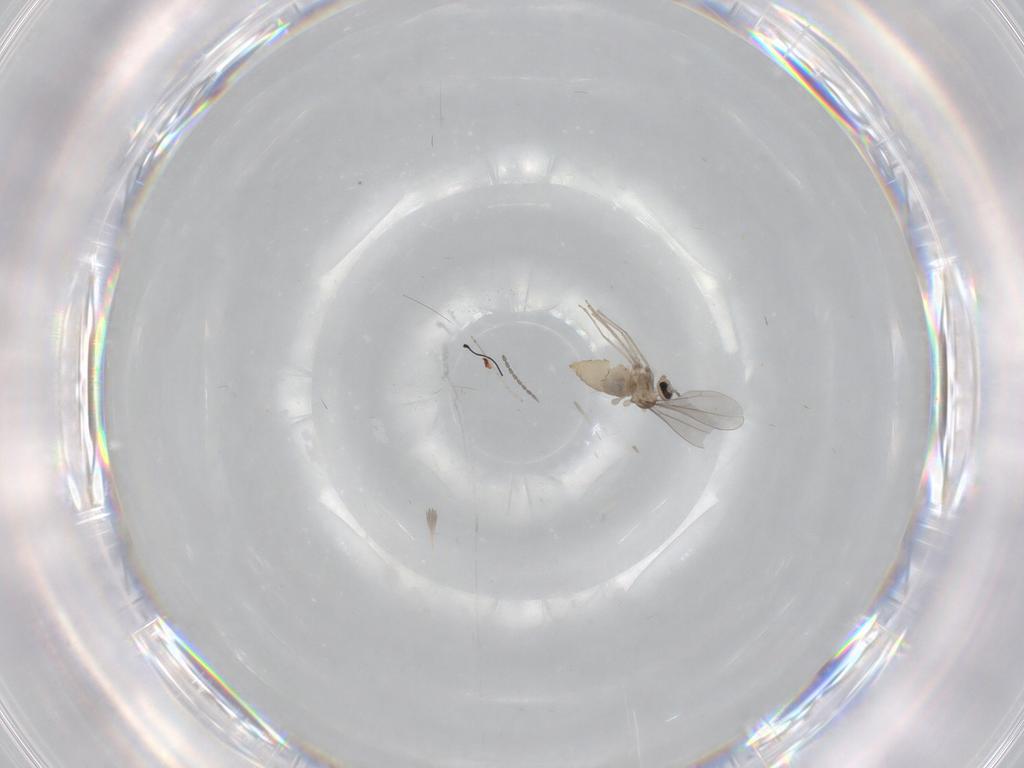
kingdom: Animalia
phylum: Arthropoda
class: Insecta
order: Diptera
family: Cecidomyiidae
